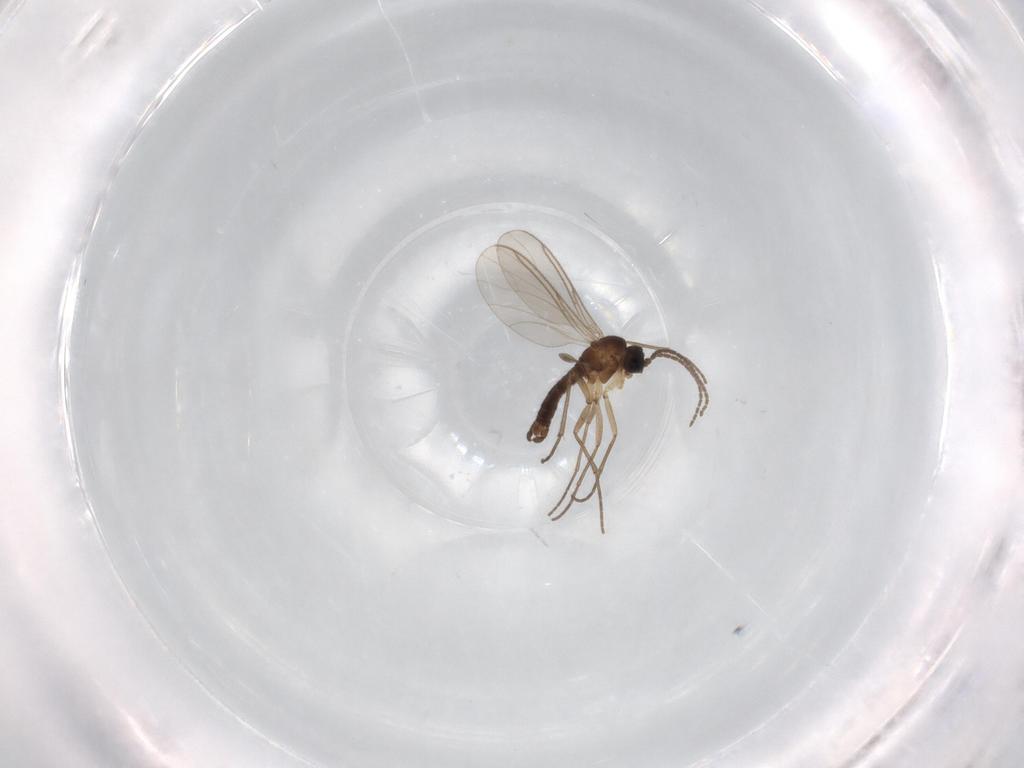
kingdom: Animalia
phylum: Arthropoda
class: Insecta
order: Diptera
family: Sciaridae
